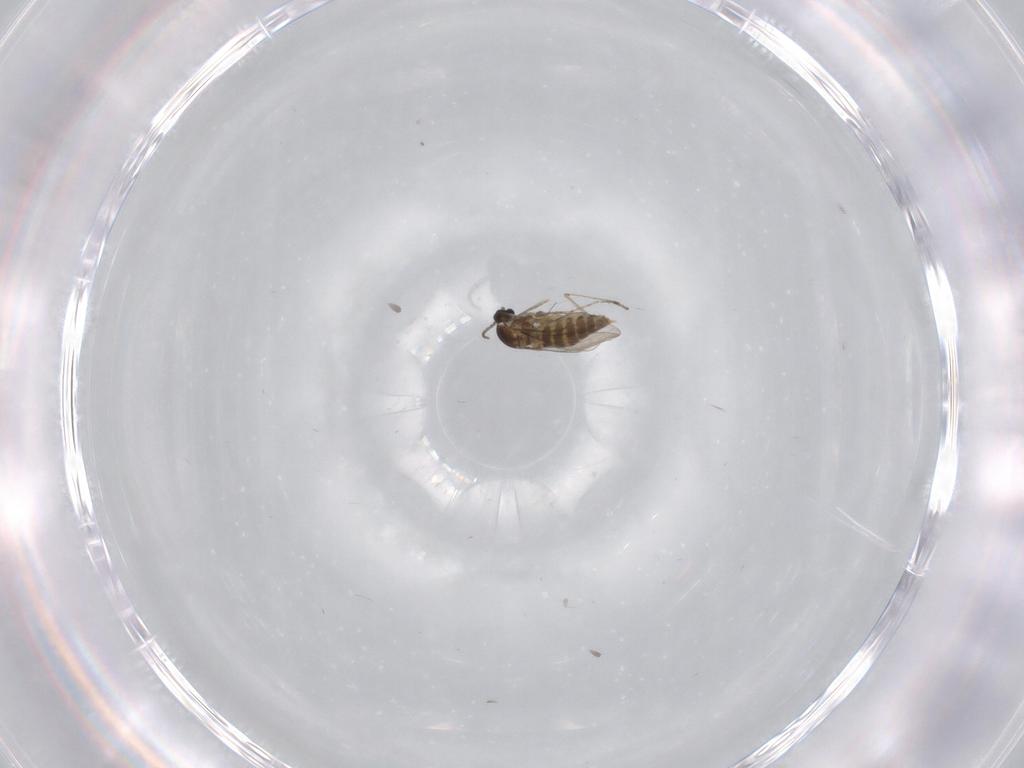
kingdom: Animalia
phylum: Arthropoda
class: Insecta
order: Diptera
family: Cecidomyiidae
